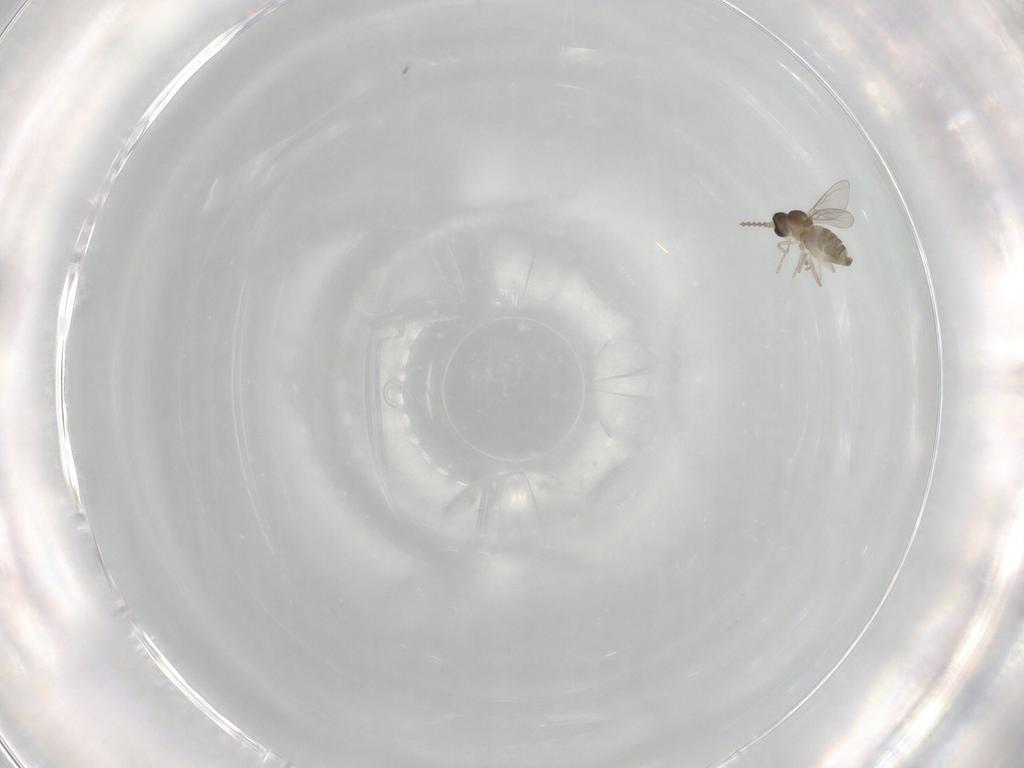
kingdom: Animalia
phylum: Arthropoda
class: Insecta
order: Diptera
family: Cecidomyiidae
